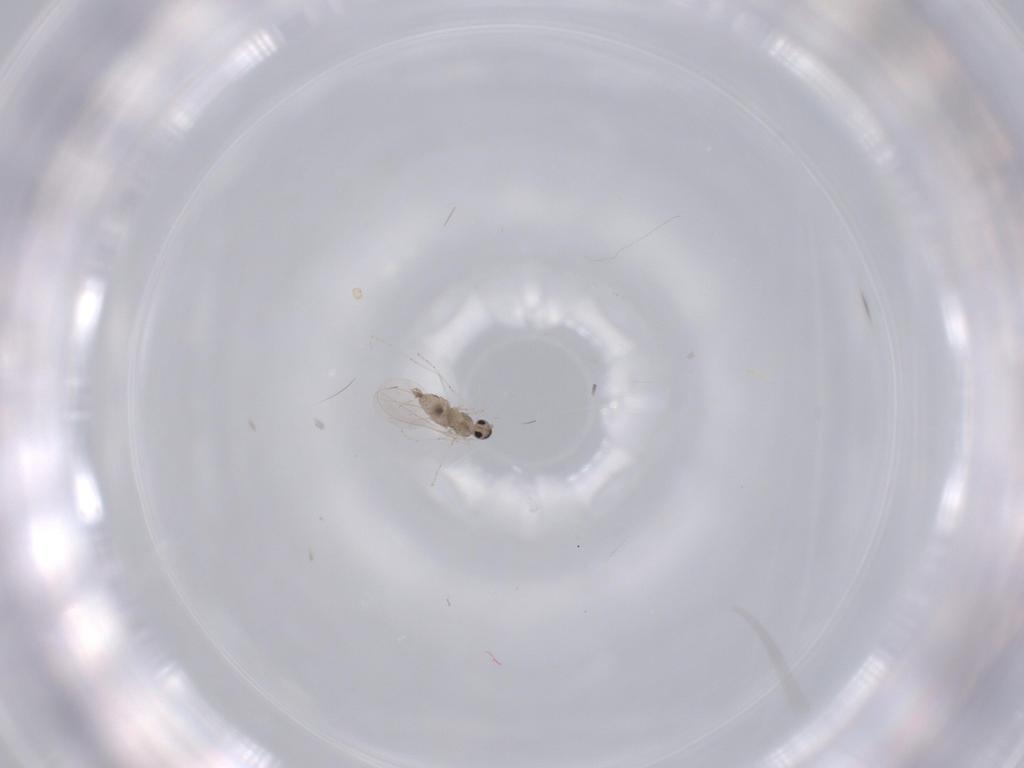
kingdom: Animalia
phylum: Arthropoda
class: Insecta
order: Diptera
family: Cecidomyiidae
